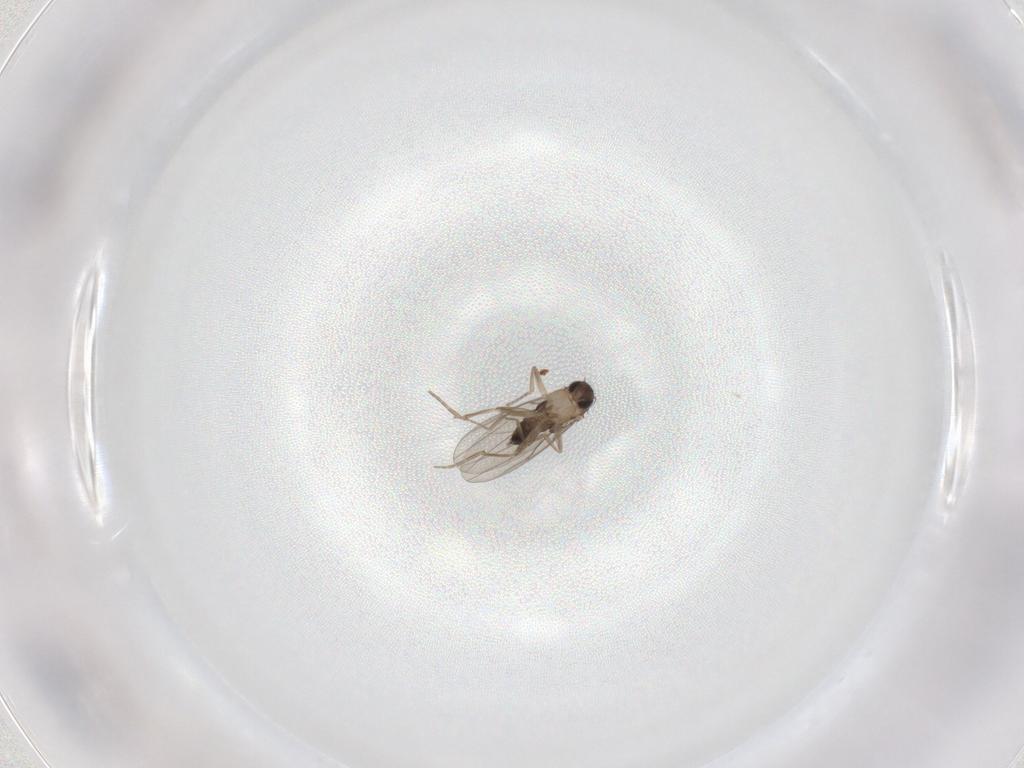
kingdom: Animalia
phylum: Arthropoda
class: Insecta
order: Diptera
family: Phoridae
